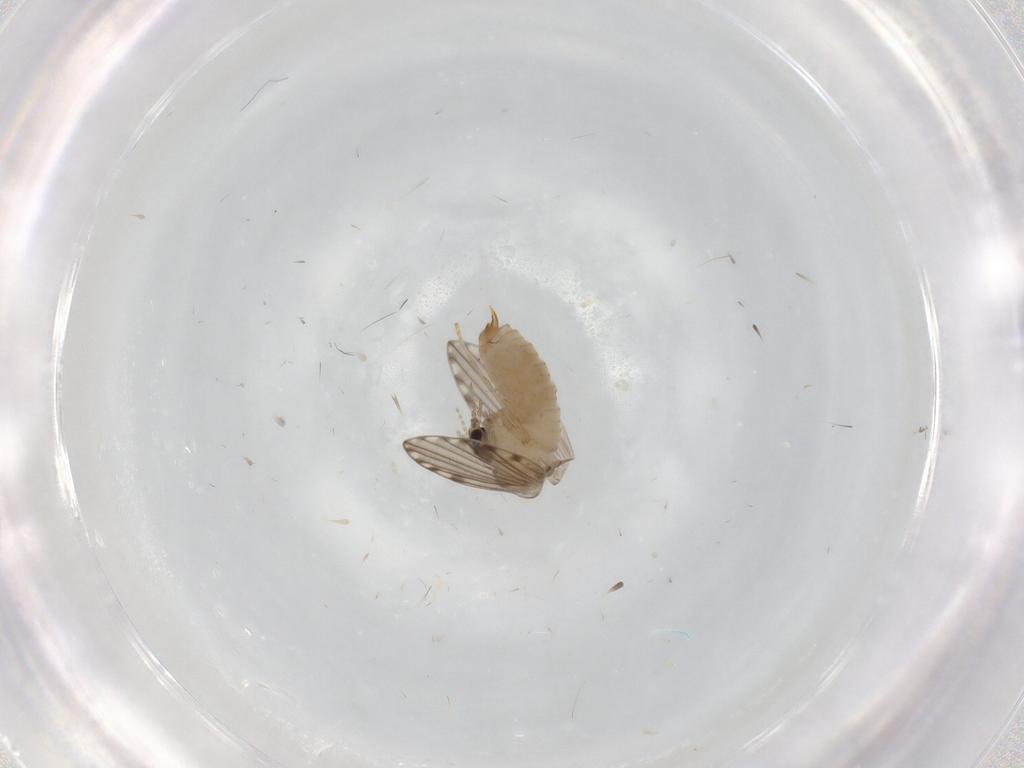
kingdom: Animalia
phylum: Arthropoda
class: Insecta
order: Diptera
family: Psychodidae
